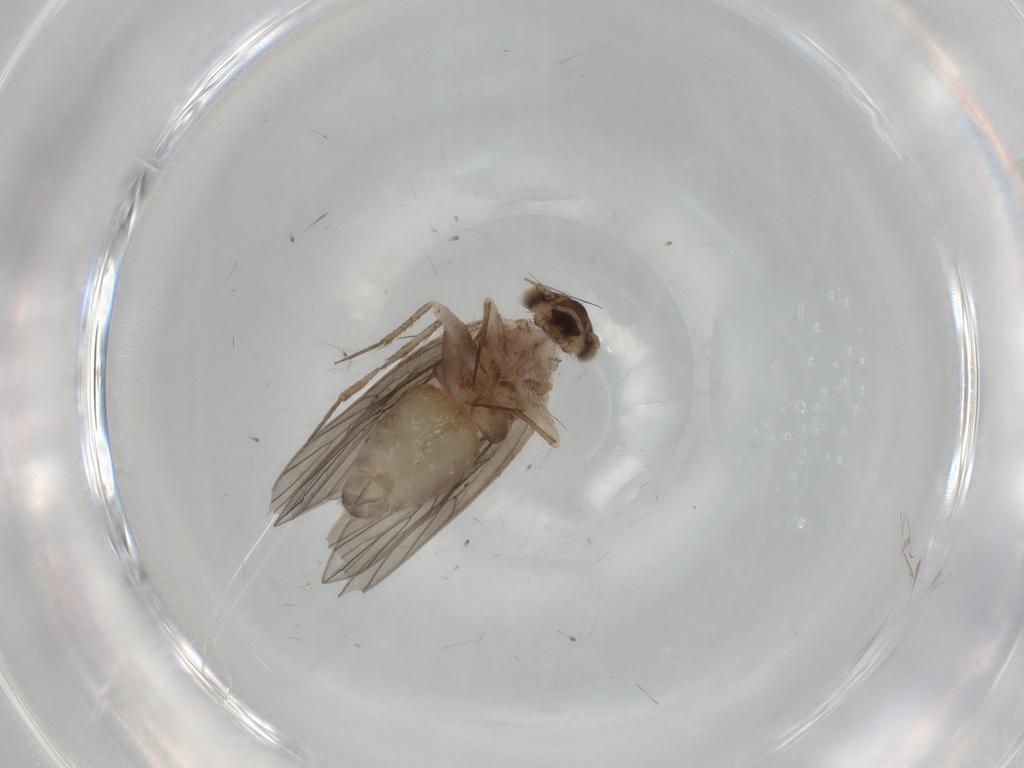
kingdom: Animalia
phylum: Arthropoda
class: Insecta
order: Psocodea
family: Lepidopsocidae
